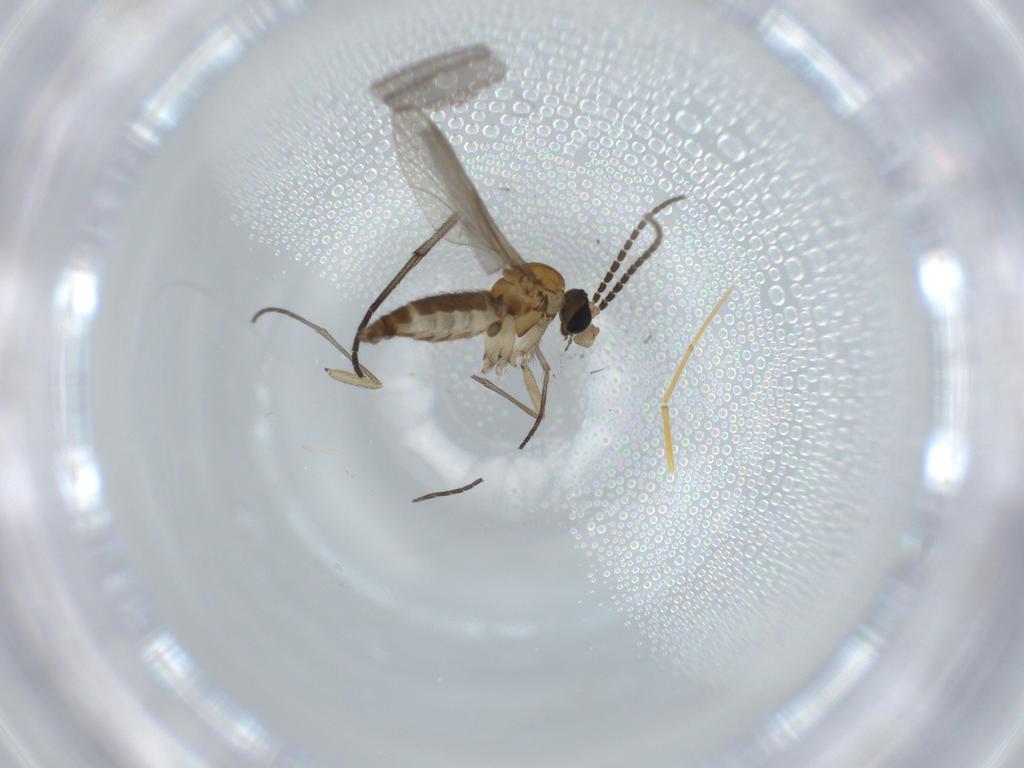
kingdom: Animalia
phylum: Arthropoda
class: Insecta
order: Diptera
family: Sciaridae
